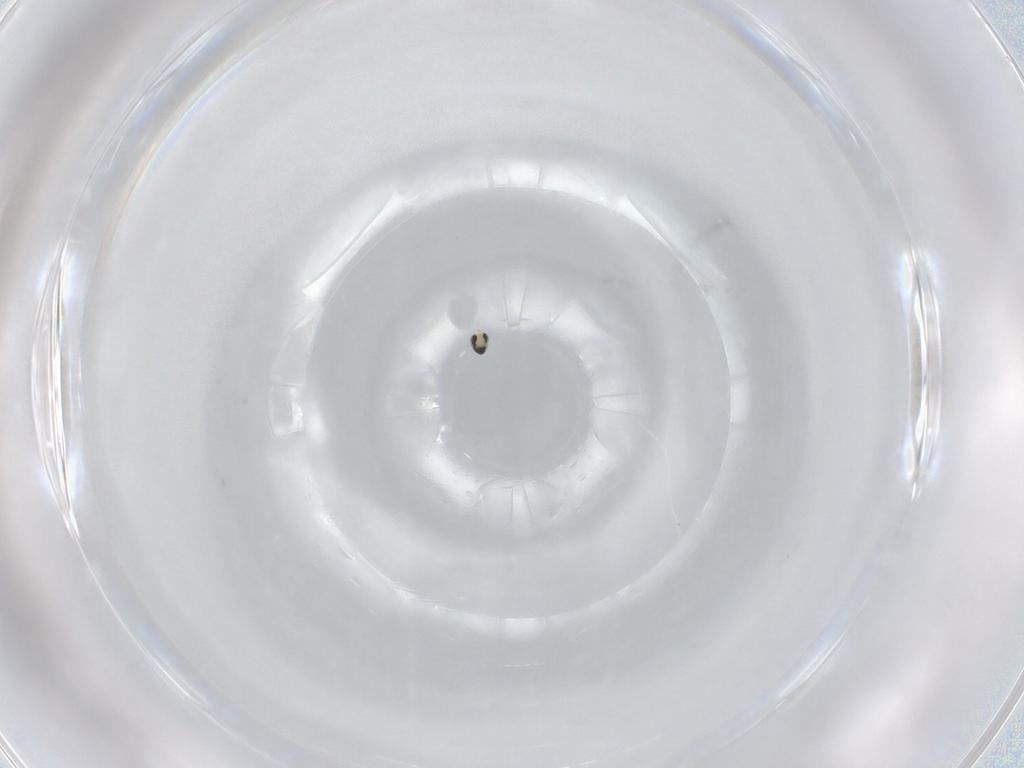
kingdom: Animalia
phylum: Arthropoda
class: Insecta
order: Diptera
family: Cecidomyiidae
